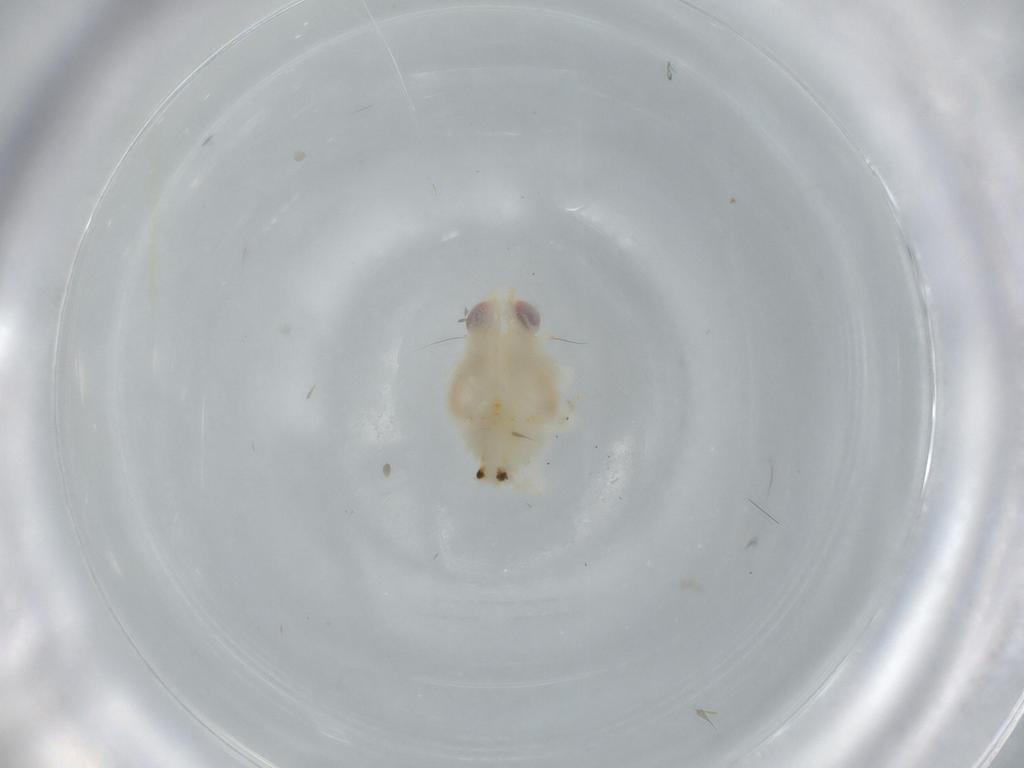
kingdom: Animalia
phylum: Arthropoda
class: Insecta
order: Hemiptera
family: Nogodinidae
